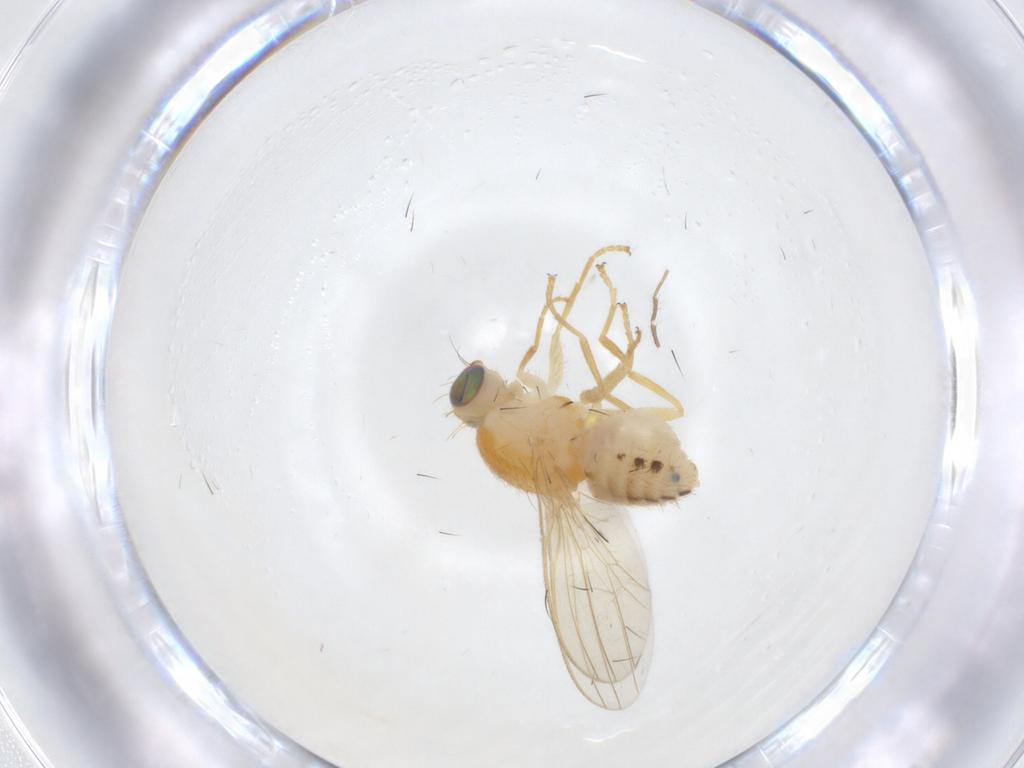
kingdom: Animalia
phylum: Arthropoda
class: Insecta
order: Diptera
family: Chyromyidae
